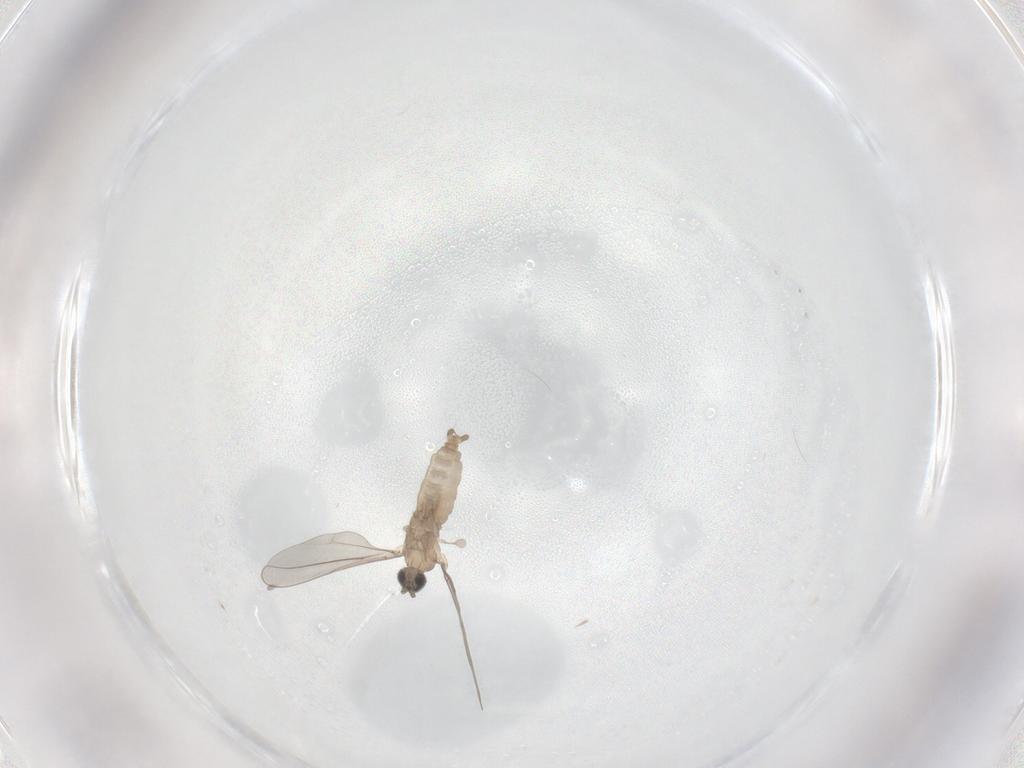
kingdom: Animalia
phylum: Arthropoda
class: Insecta
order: Diptera
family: Cecidomyiidae
